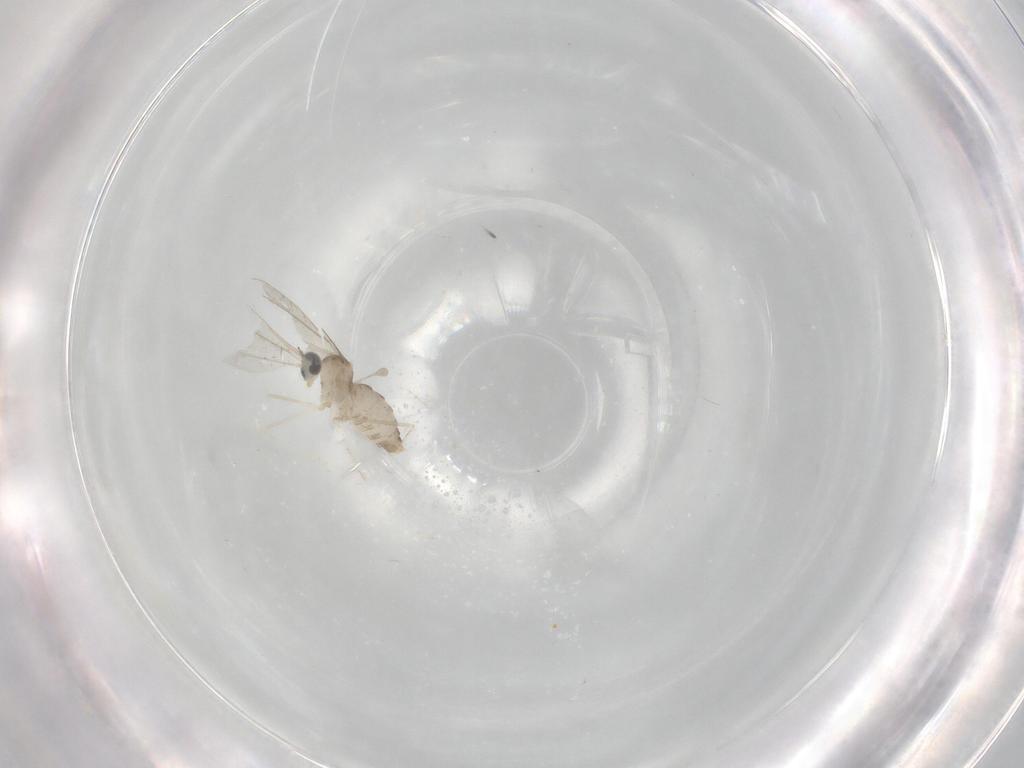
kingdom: Animalia
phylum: Arthropoda
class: Insecta
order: Diptera
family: Cecidomyiidae
